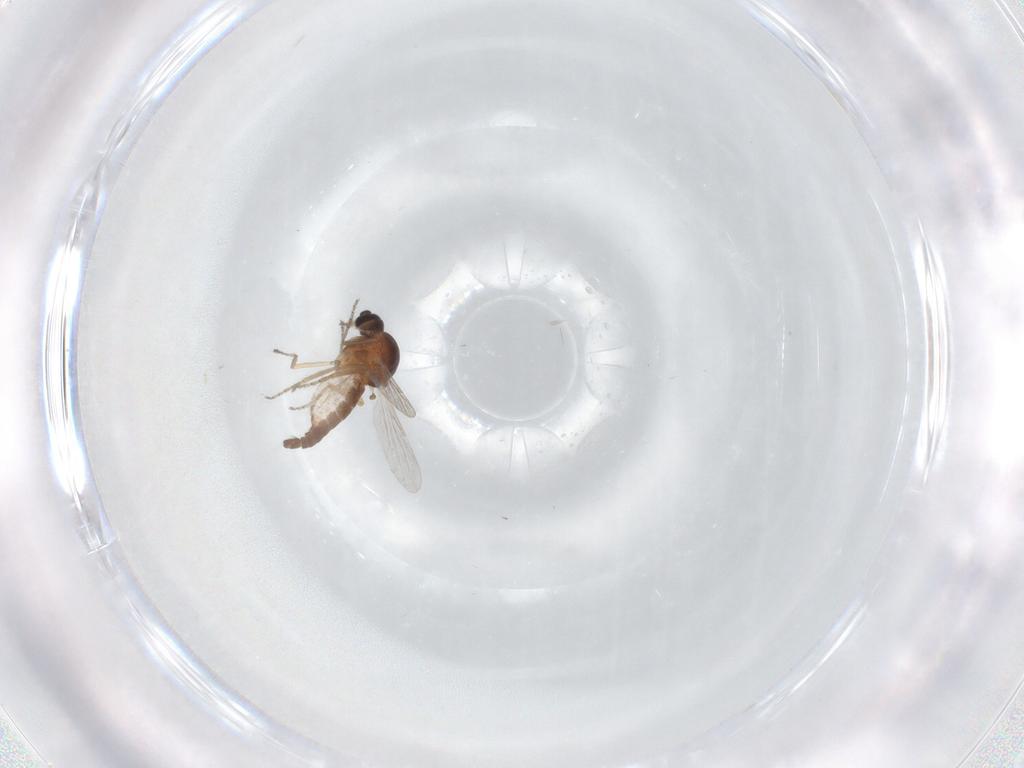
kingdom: Animalia
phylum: Arthropoda
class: Insecta
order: Diptera
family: Ceratopogonidae
